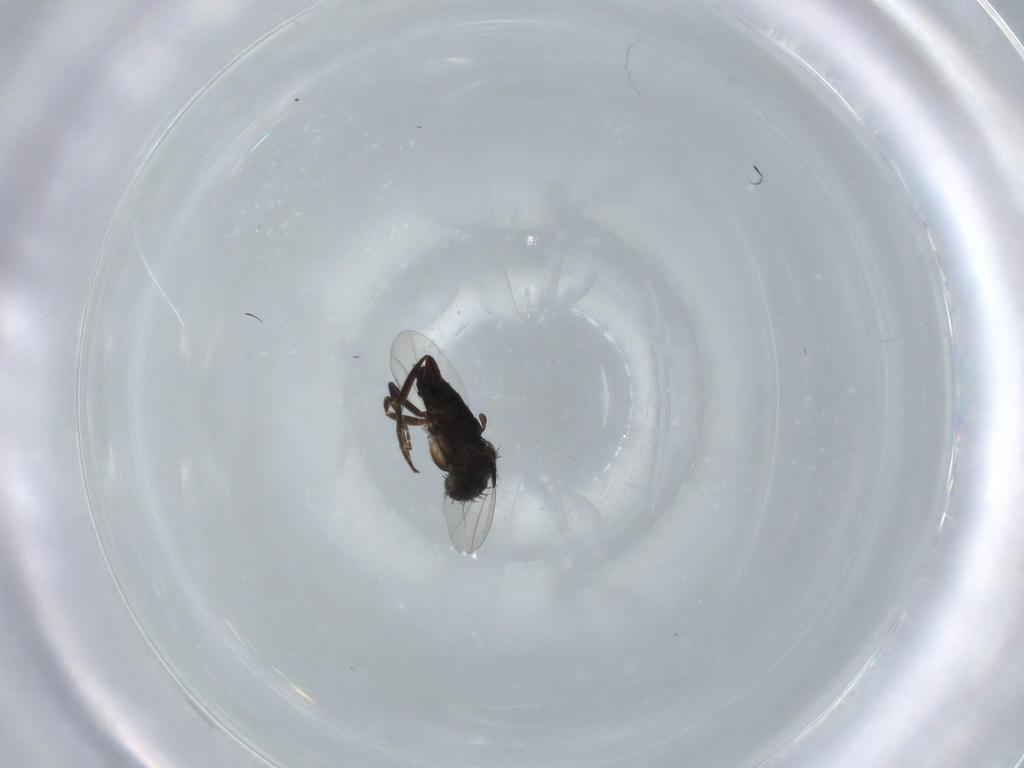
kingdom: Animalia
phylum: Arthropoda
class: Insecta
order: Diptera
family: Phoridae
